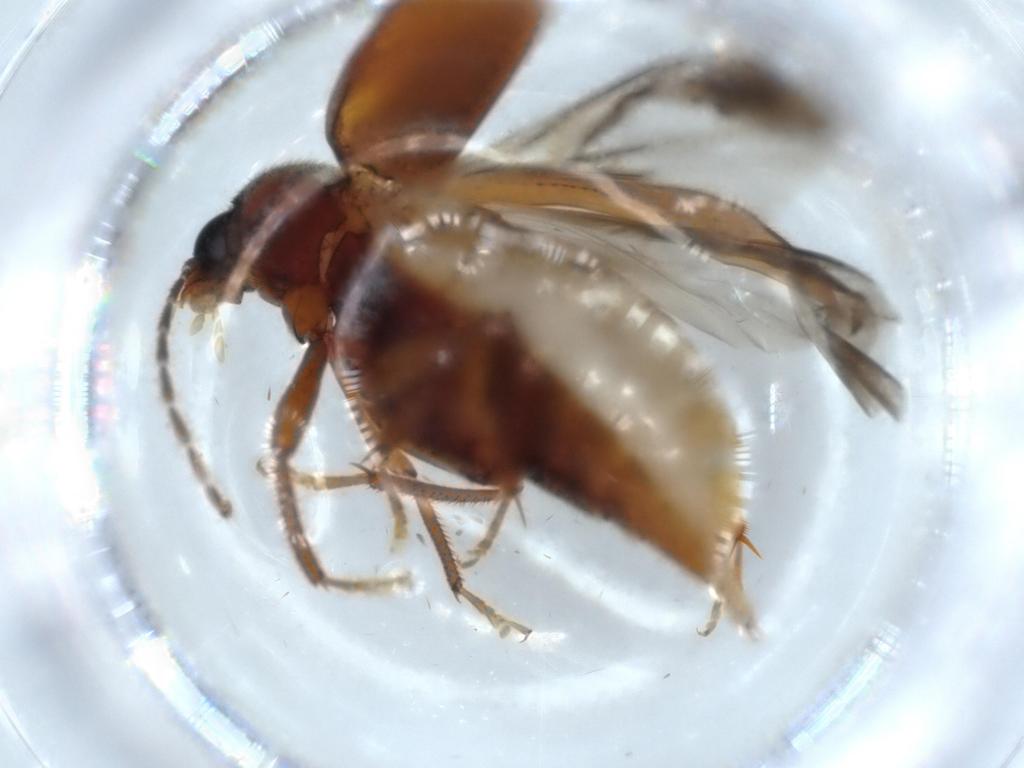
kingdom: Animalia
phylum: Arthropoda
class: Insecta
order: Coleoptera
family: Ptilodactylidae
